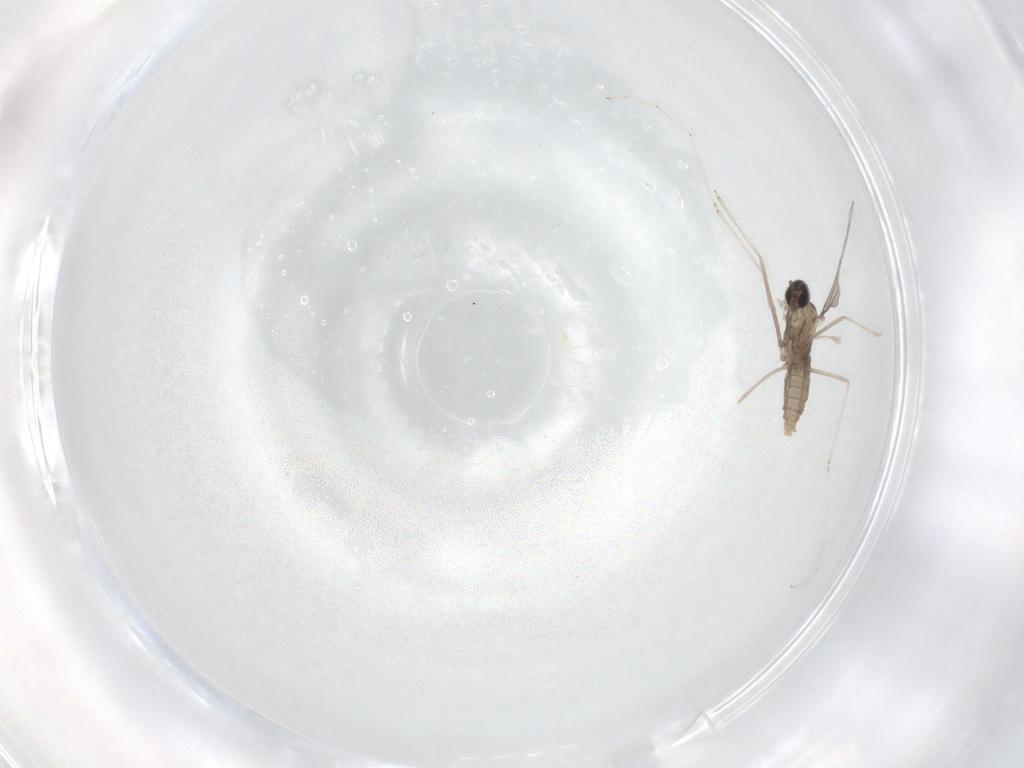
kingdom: Animalia
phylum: Arthropoda
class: Insecta
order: Diptera
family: Cecidomyiidae
